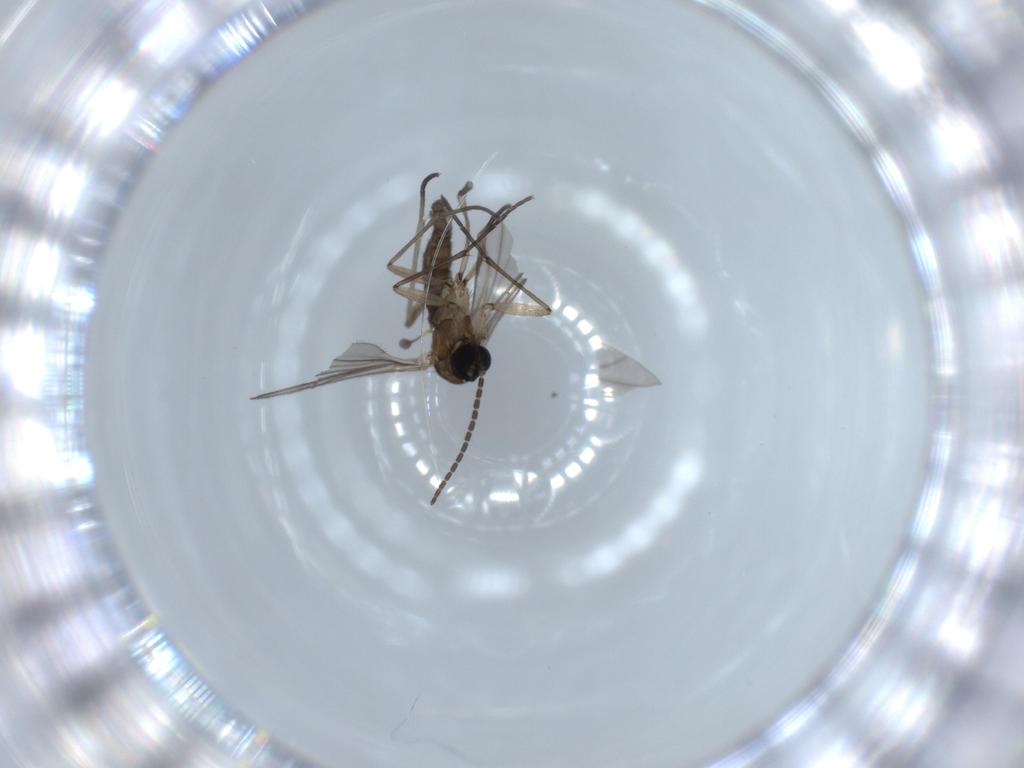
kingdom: Animalia
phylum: Arthropoda
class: Insecta
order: Diptera
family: Sciaridae
